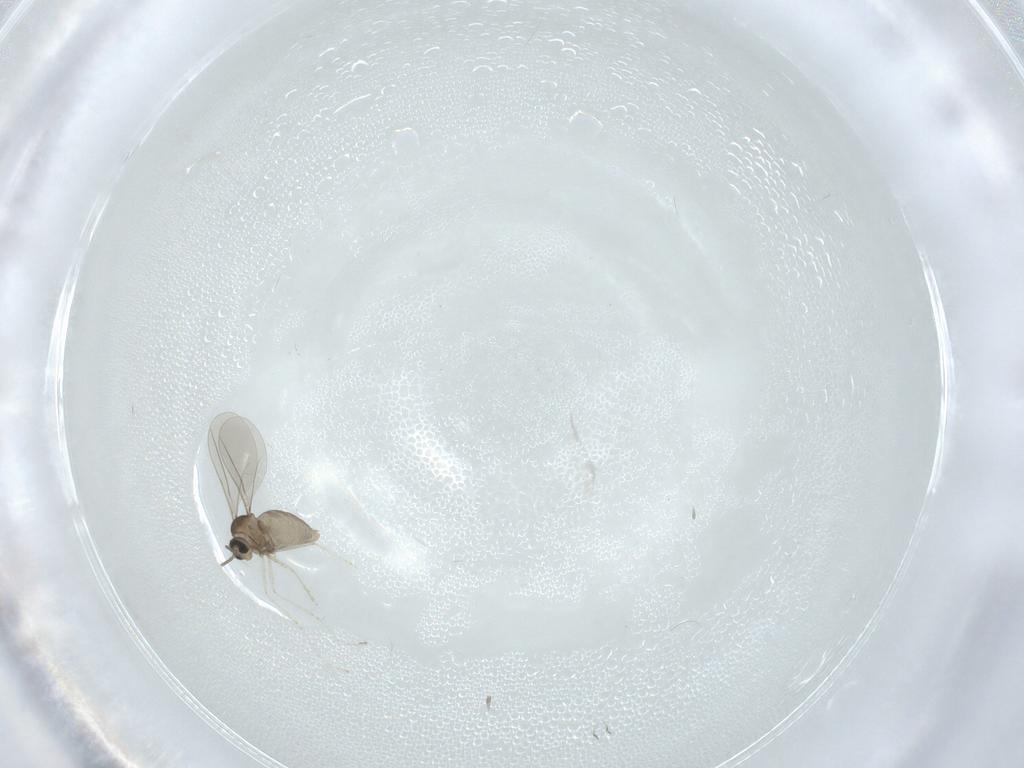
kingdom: Animalia
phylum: Arthropoda
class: Insecta
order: Diptera
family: Cecidomyiidae
